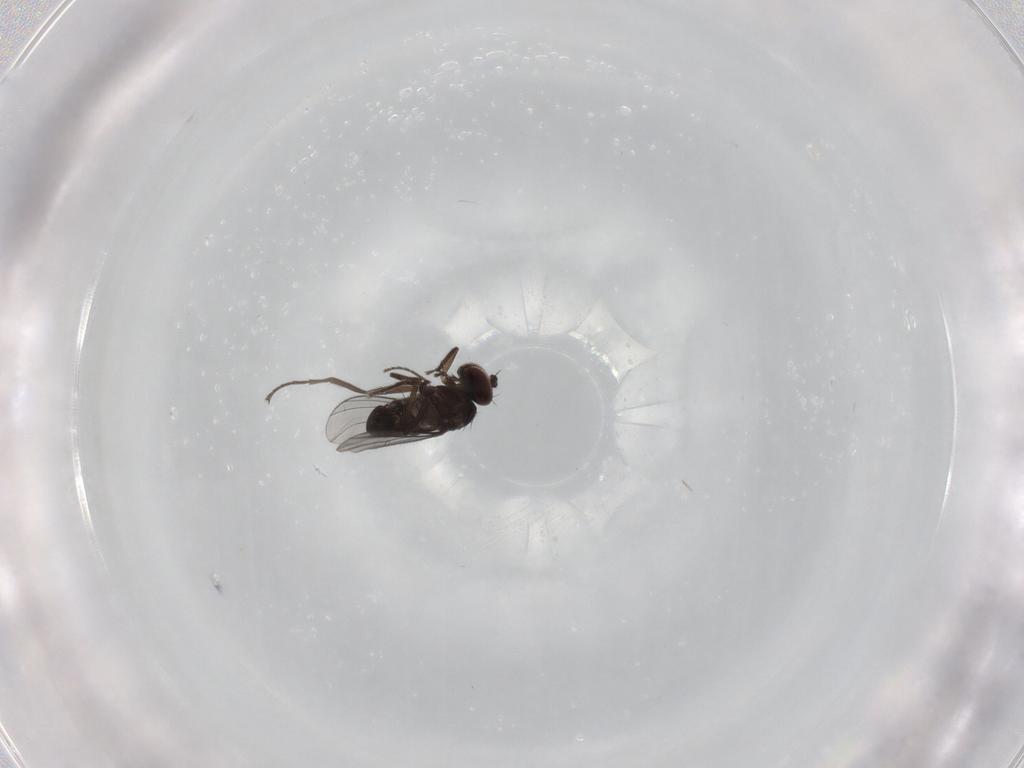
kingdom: Animalia
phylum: Arthropoda
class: Insecta
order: Diptera
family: Dolichopodidae
